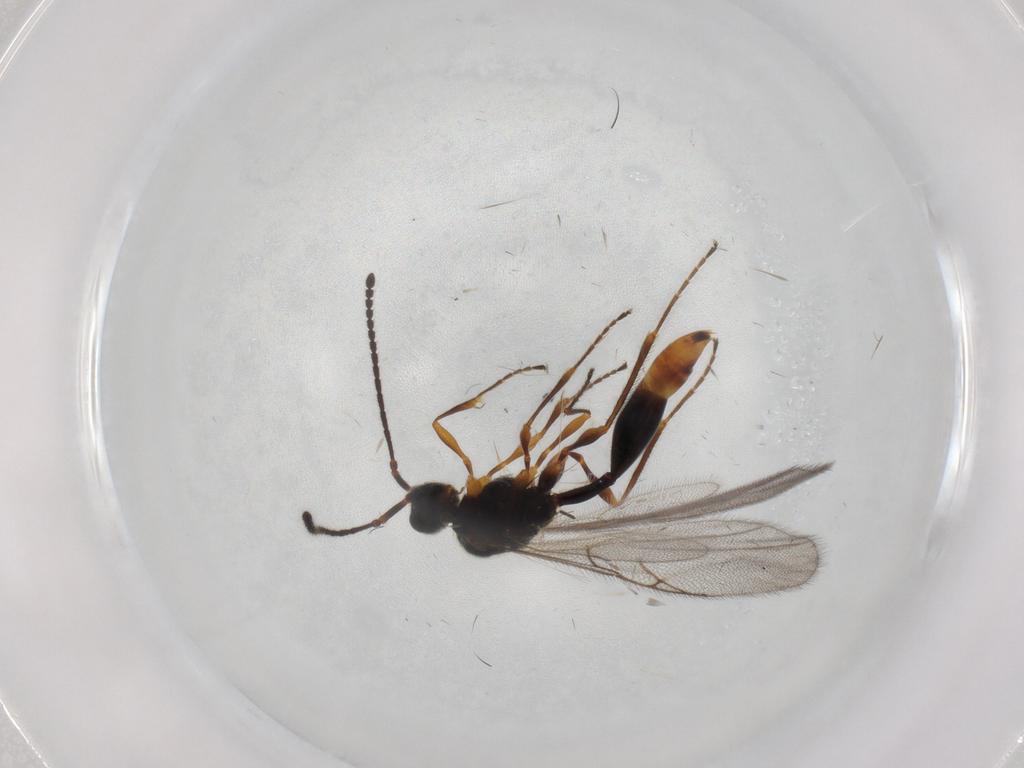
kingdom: Animalia
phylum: Arthropoda
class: Insecta
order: Hymenoptera
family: Diapriidae
